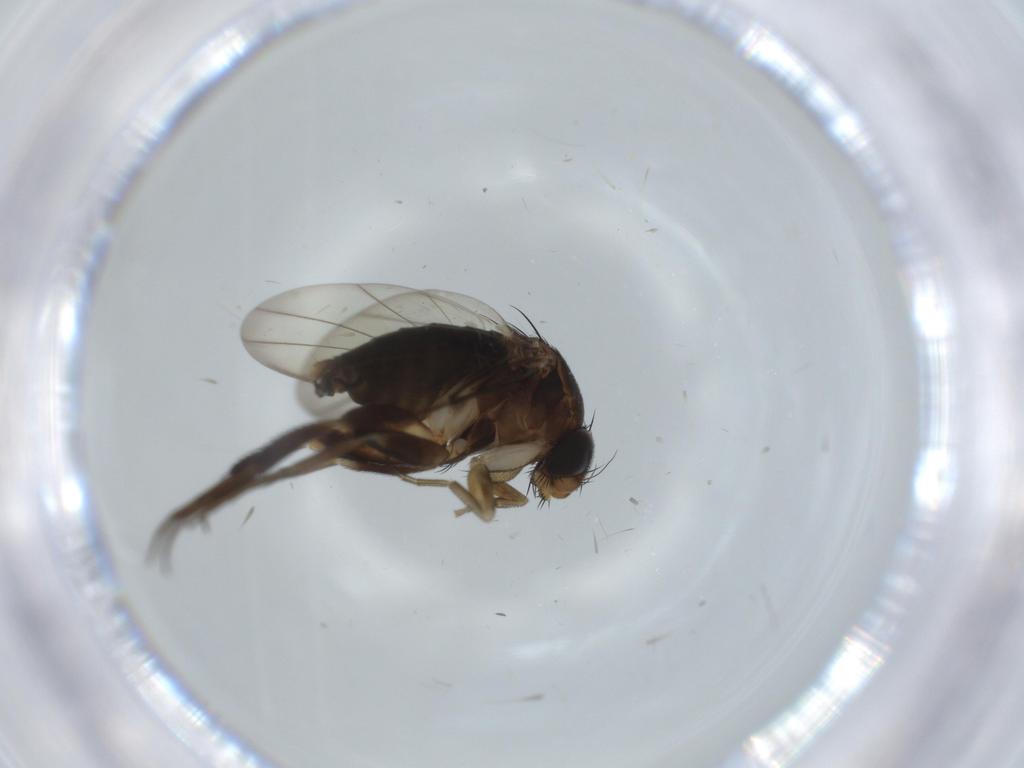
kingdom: Animalia
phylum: Arthropoda
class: Insecta
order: Diptera
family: Phoridae
